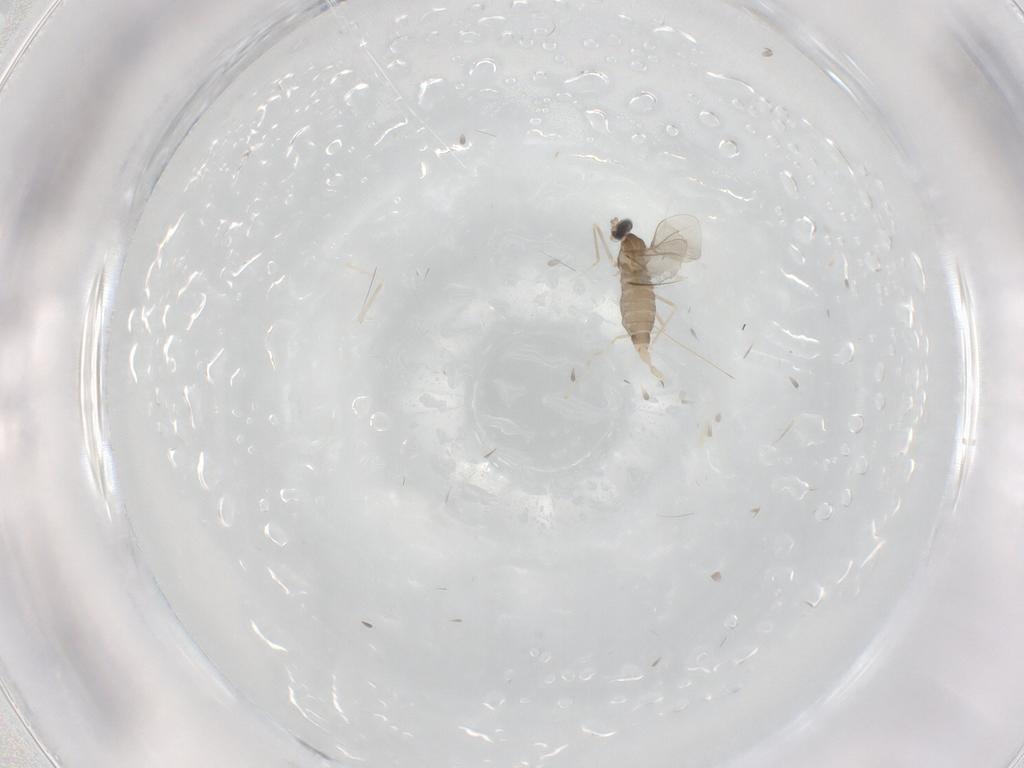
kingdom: Animalia
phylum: Arthropoda
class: Insecta
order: Diptera
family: Cecidomyiidae
